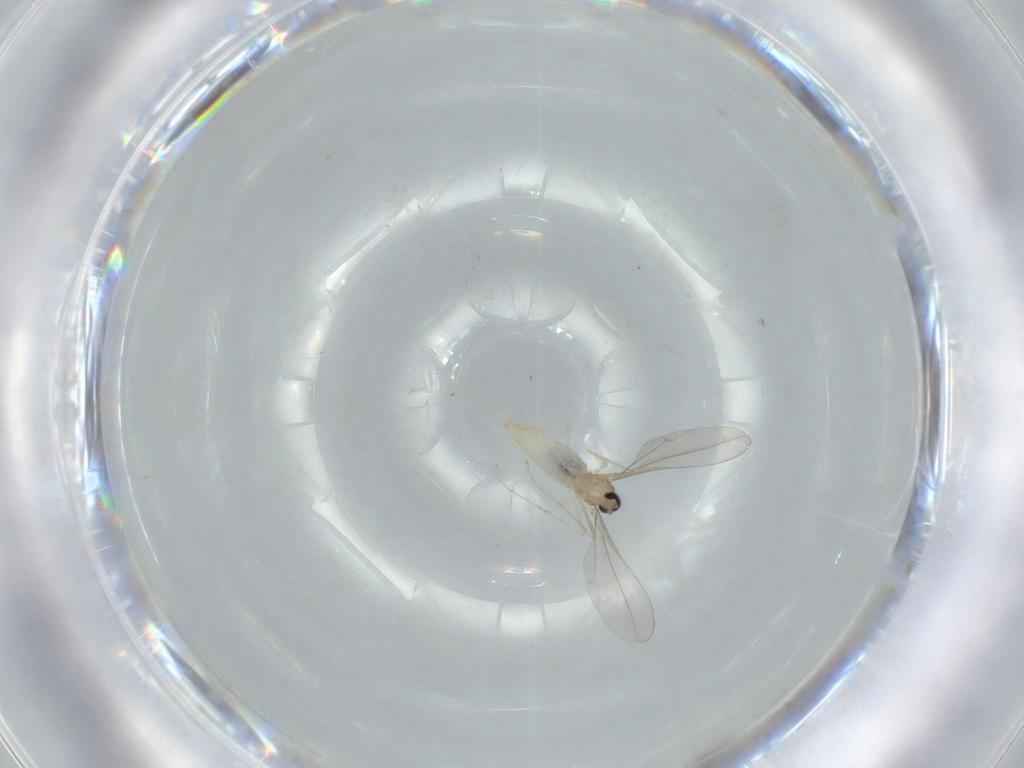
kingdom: Animalia
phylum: Arthropoda
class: Insecta
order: Diptera
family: Cecidomyiidae
